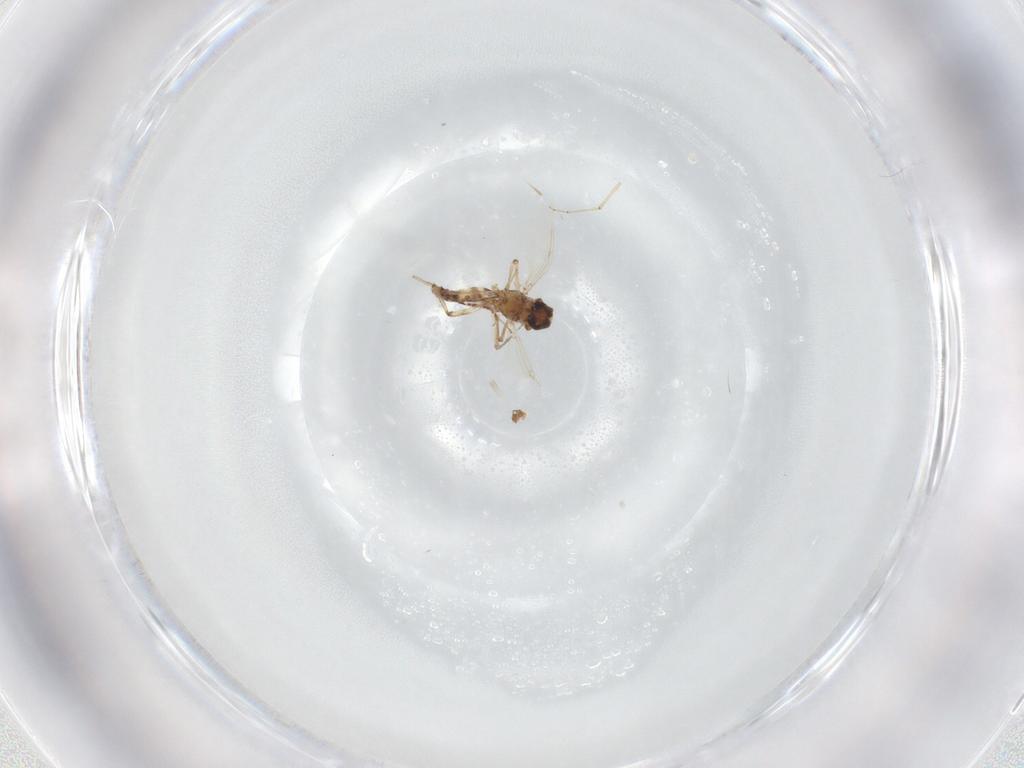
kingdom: Animalia
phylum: Arthropoda
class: Insecta
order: Diptera
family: Ceratopogonidae
